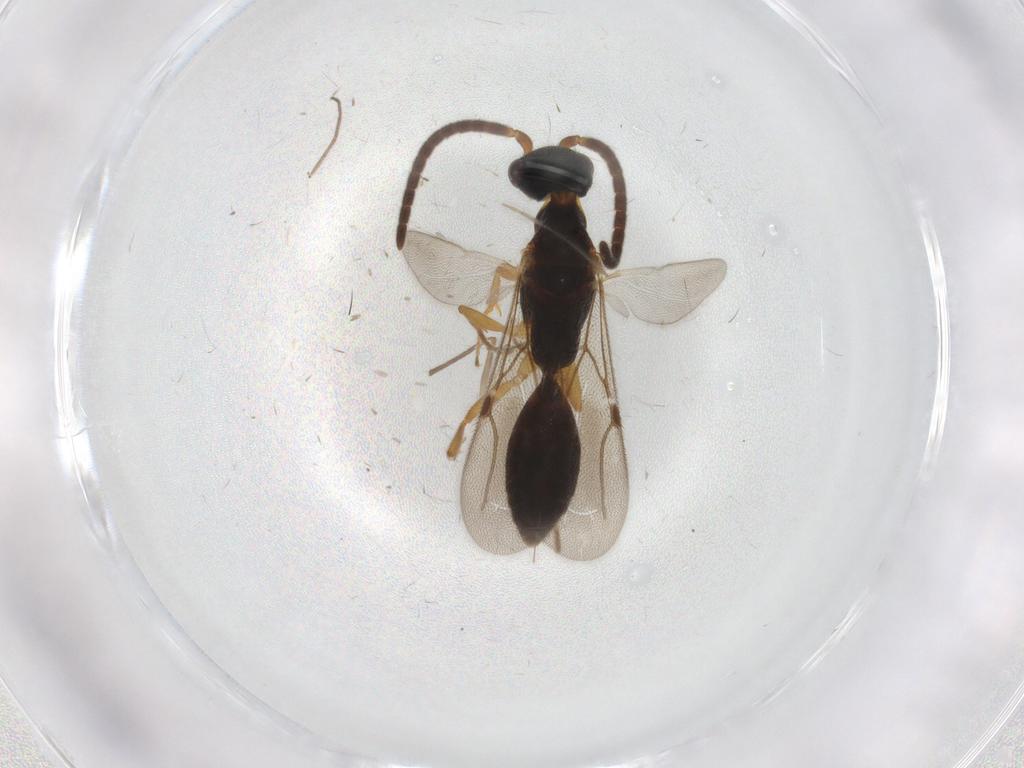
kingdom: Animalia
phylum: Arthropoda
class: Insecta
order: Hymenoptera
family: Bethylidae
